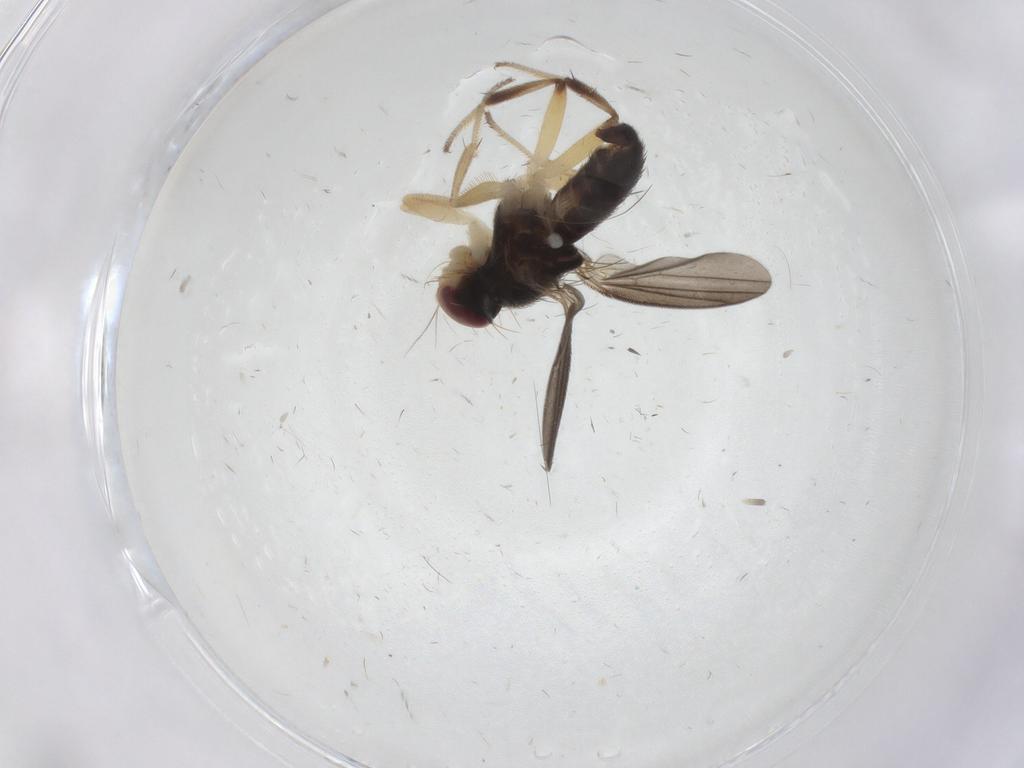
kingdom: Animalia
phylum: Arthropoda
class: Insecta
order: Diptera
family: Clusiidae
